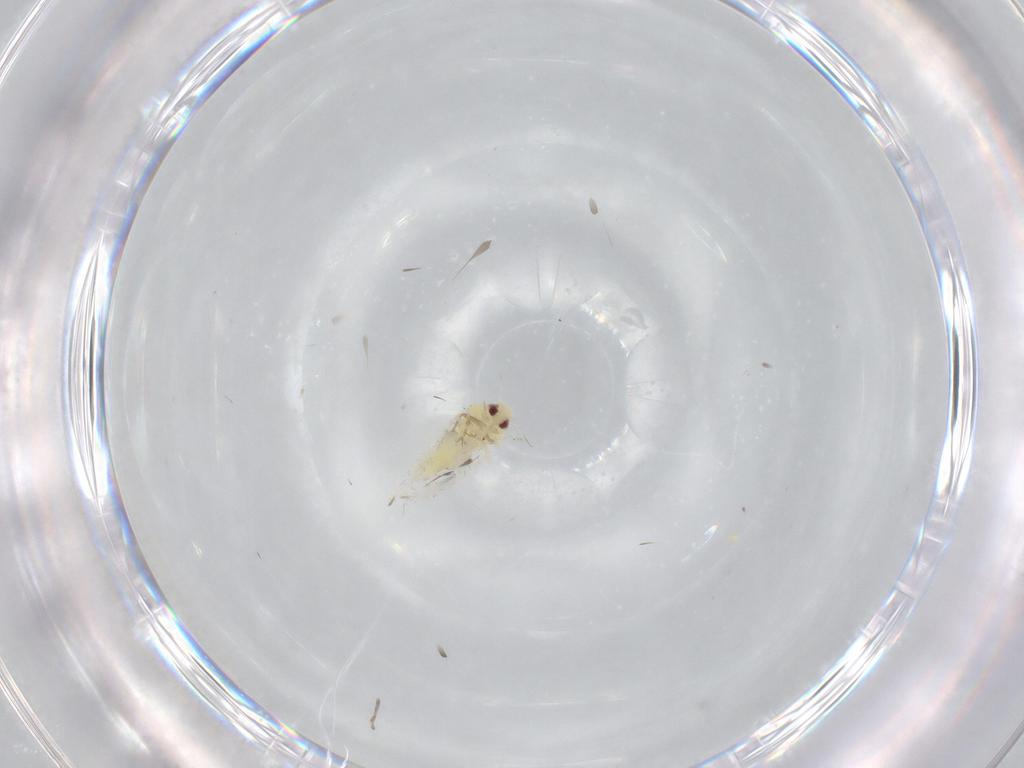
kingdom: Animalia
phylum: Arthropoda
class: Insecta
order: Hemiptera
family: Aleyrodidae
